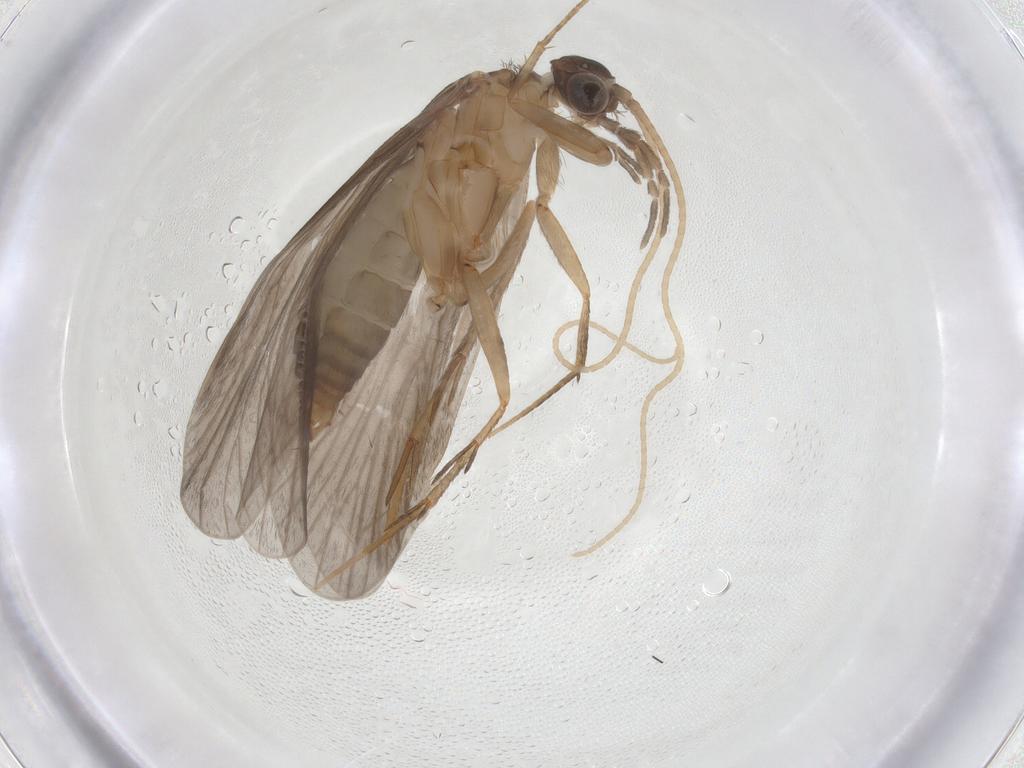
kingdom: Animalia
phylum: Arthropoda
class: Insecta
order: Trichoptera
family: Philopotamidae
